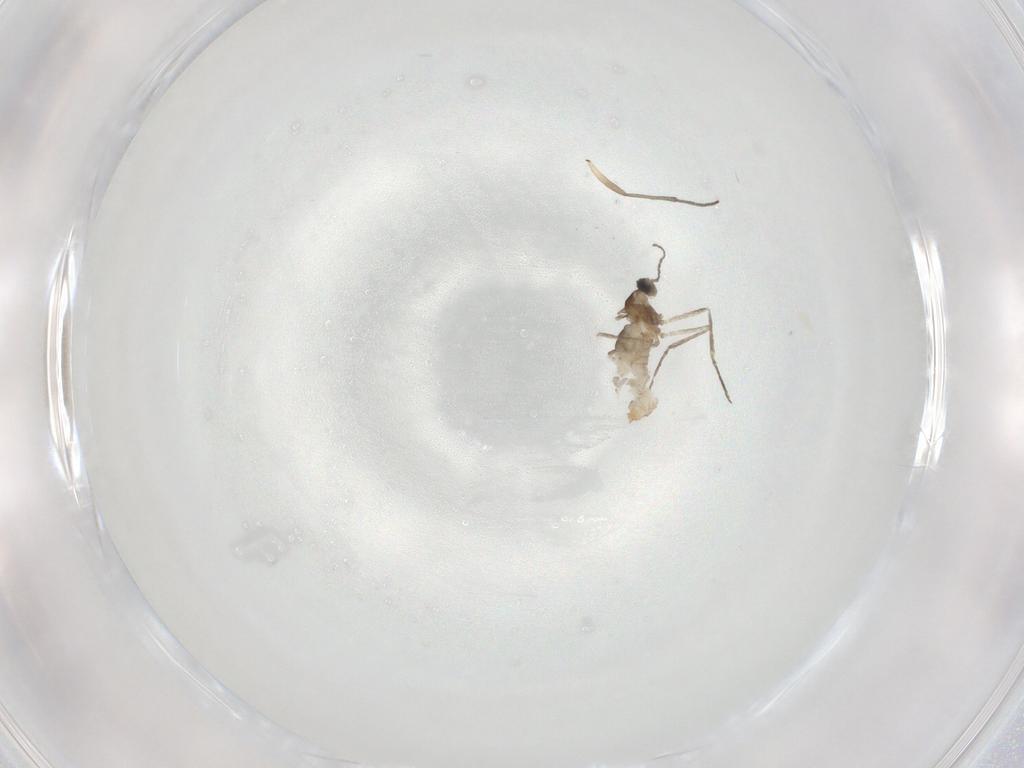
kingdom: Animalia
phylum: Arthropoda
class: Insecta
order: Diptera
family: Cecidomyiidae
